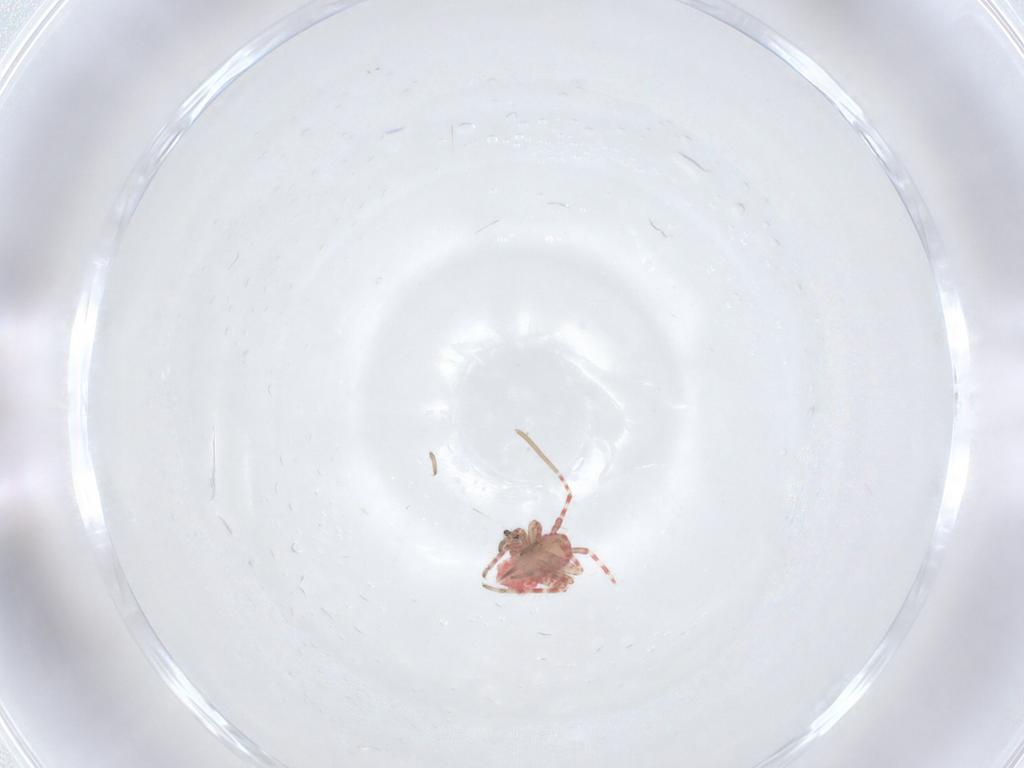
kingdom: Animalia
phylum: Arthropoda
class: Insecta
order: Hemiptera
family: Miridae
